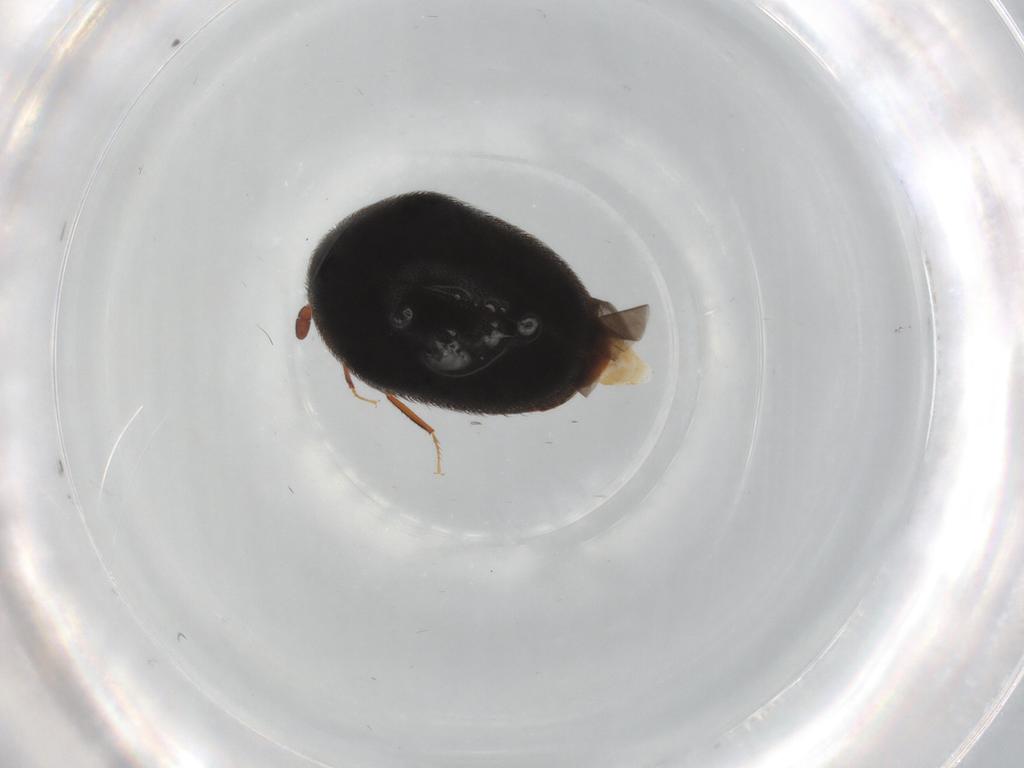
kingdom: Animalia
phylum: Arthropoda
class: Insecta
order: Coleoptera
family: Dermestidae
